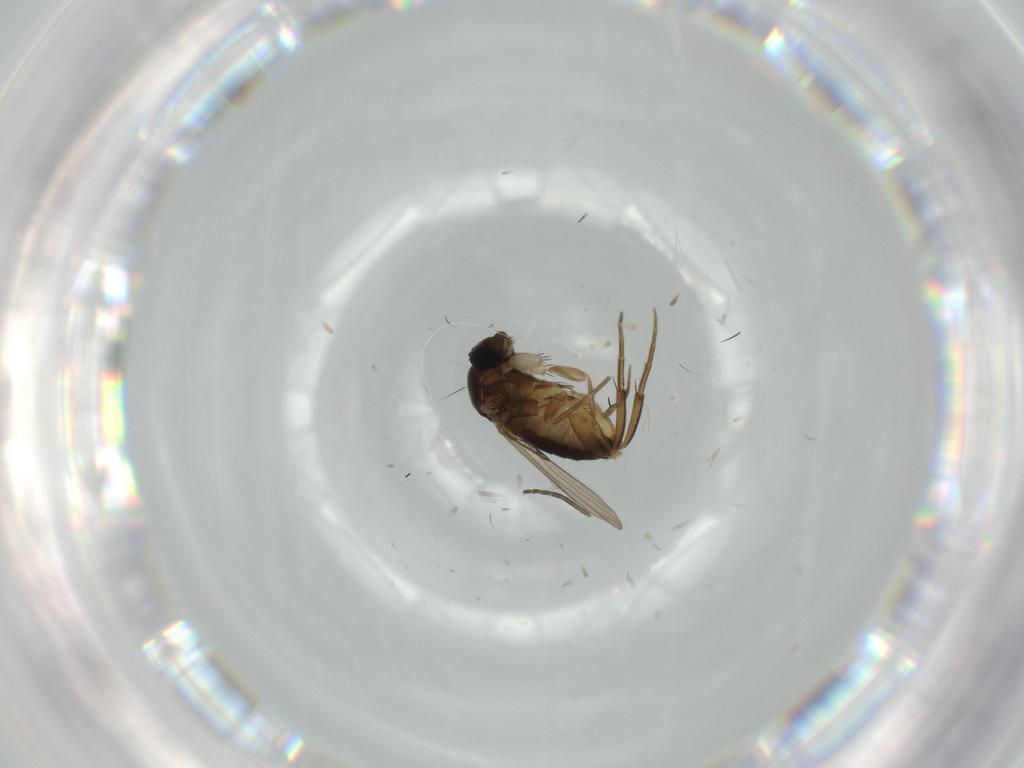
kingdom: Animalia
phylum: Arthropoda
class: Insecta
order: Diptera
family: Phoridae
